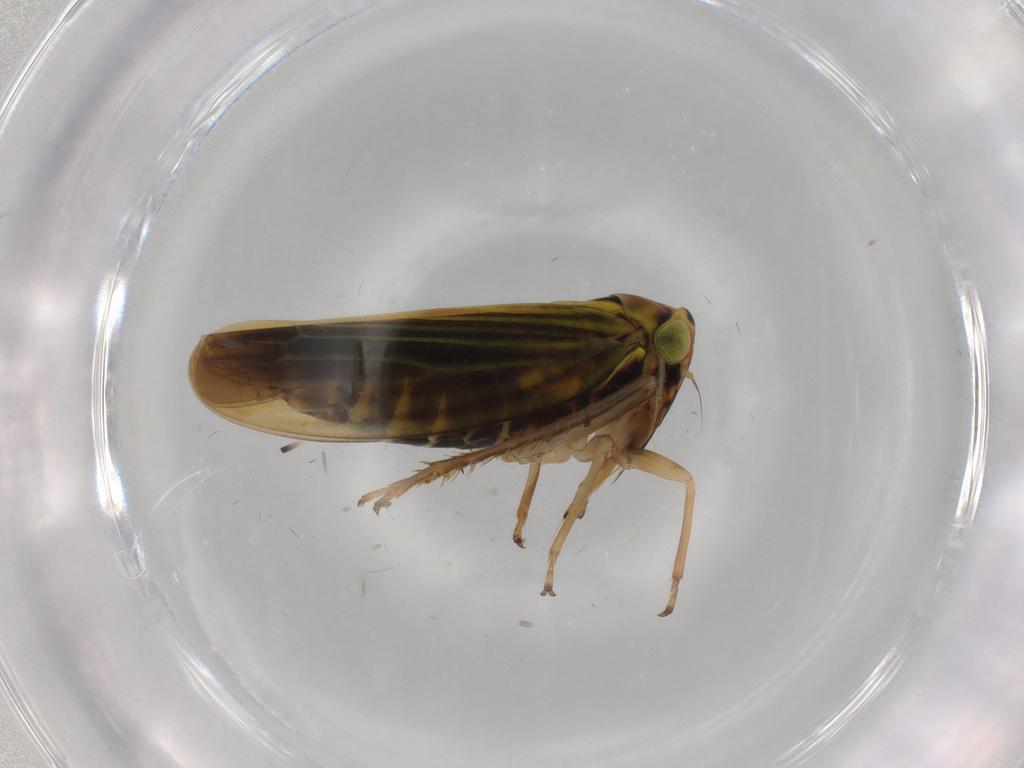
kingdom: Animalia
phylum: Arthropoda
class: Insecta
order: Hemiptera
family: Cicadellidae
